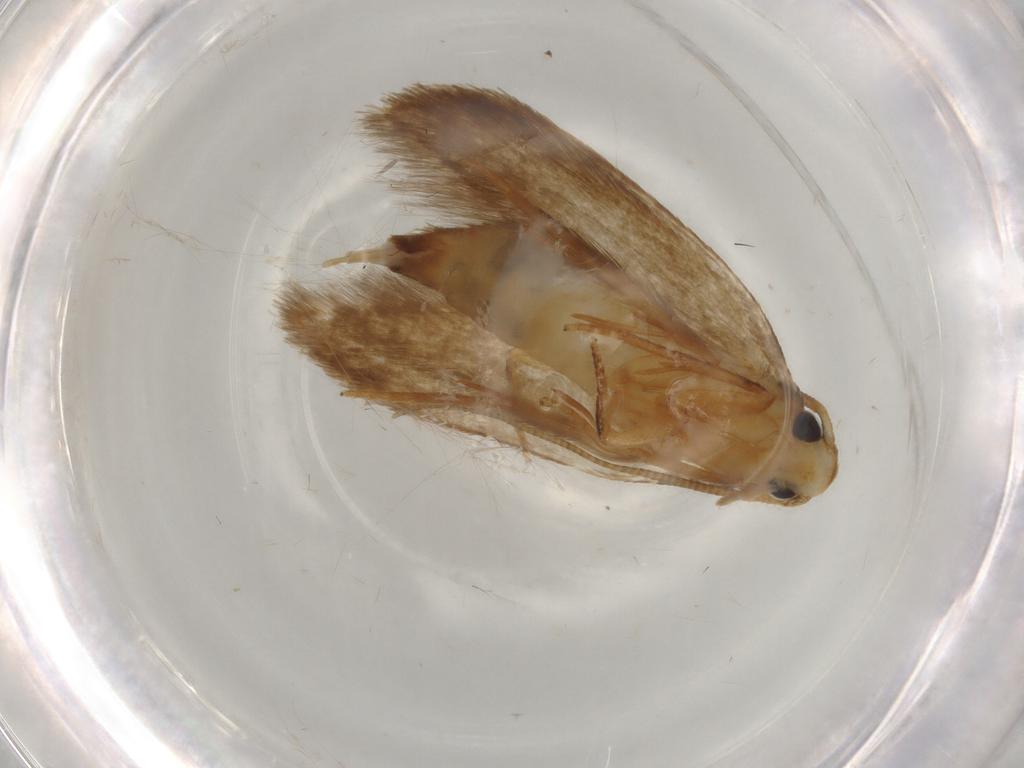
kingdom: Animalia
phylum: Arthropoda
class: Insecta
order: Lepidoptera
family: Tineidae
